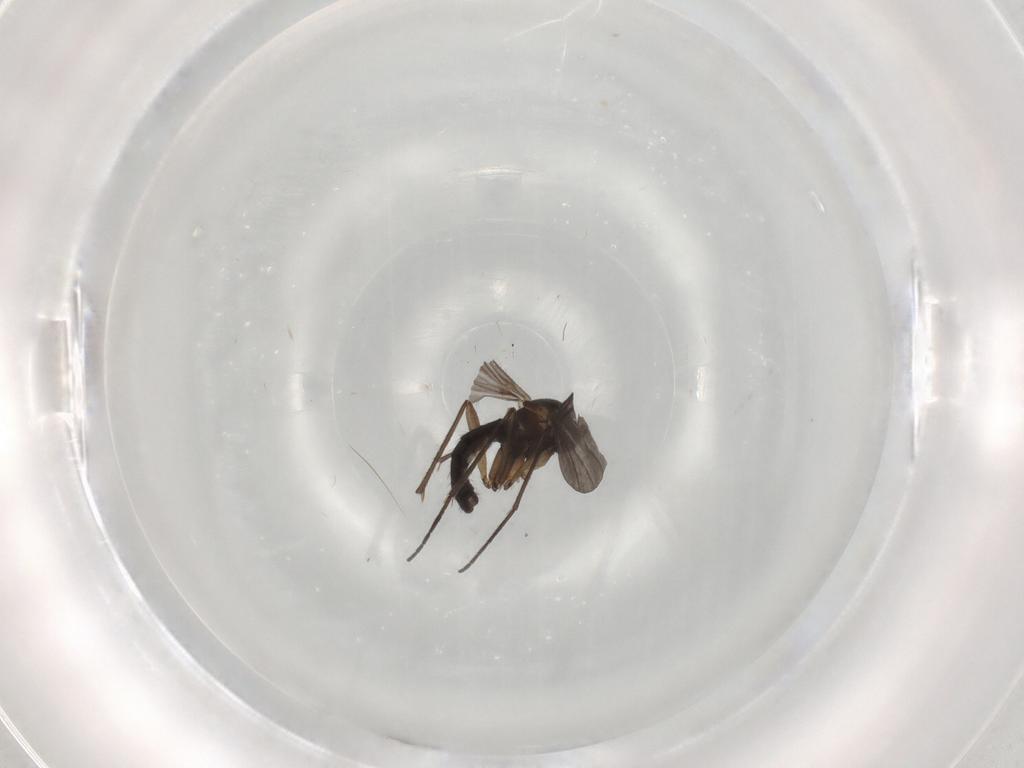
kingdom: Animalia
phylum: Arthropoda
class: Insecta
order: Diptera
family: Sciaridae
